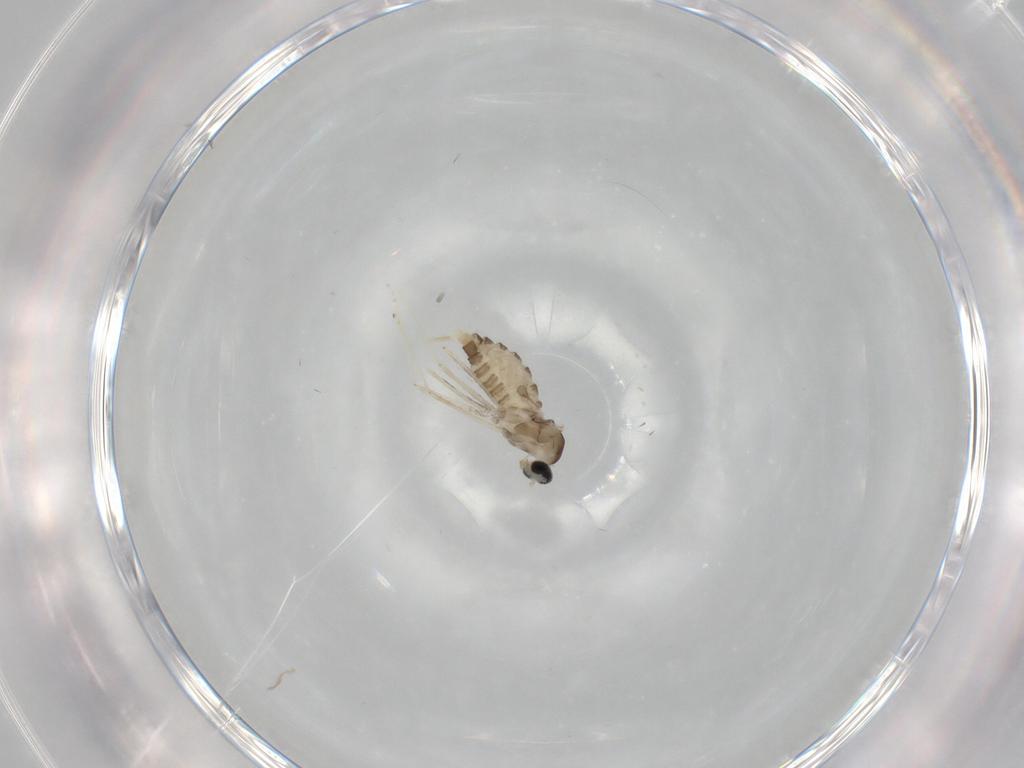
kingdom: Animalia
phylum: Arthropoda
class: Insecta
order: Diptera
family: Cecidomyiidae
